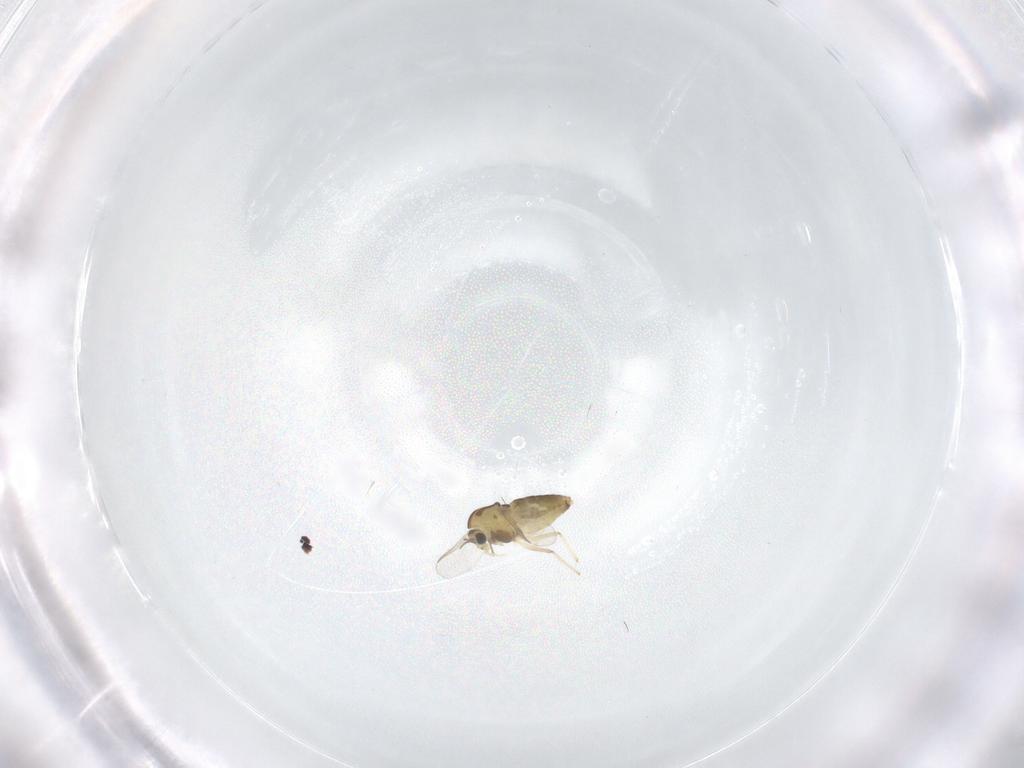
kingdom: Animalia
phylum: Arthropoda
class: Insecta
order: Diptera
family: Chironomidae
